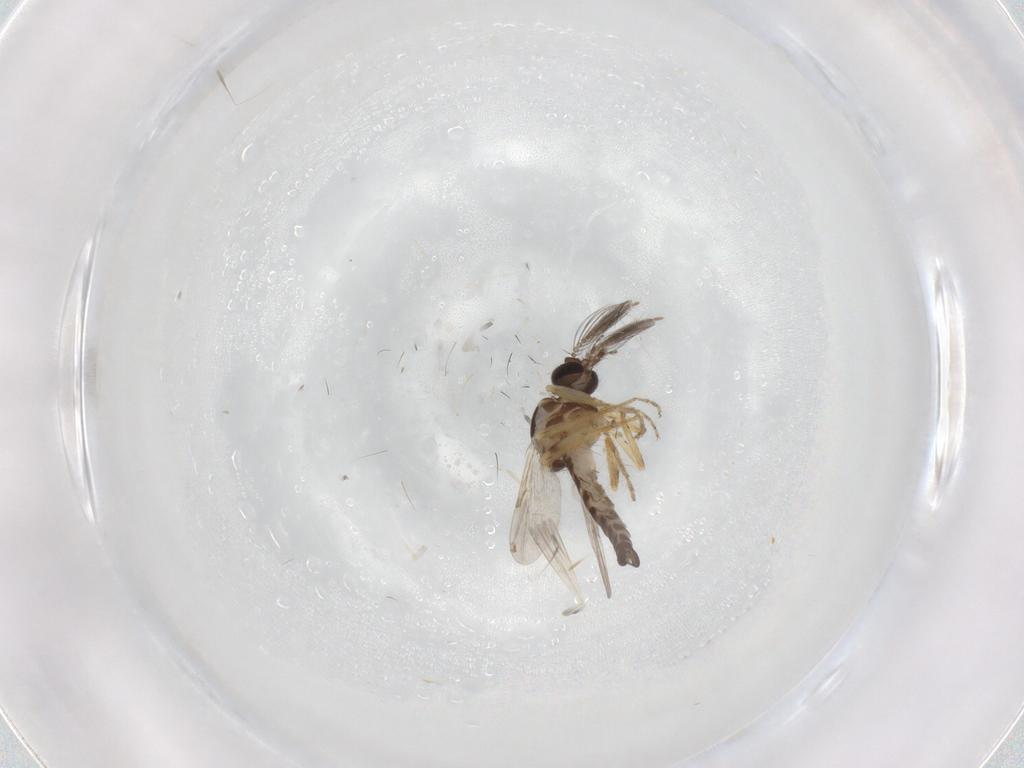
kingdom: Animalia
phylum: Arthropoda
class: Insecta
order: Diptera
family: Ceratopogonidae
